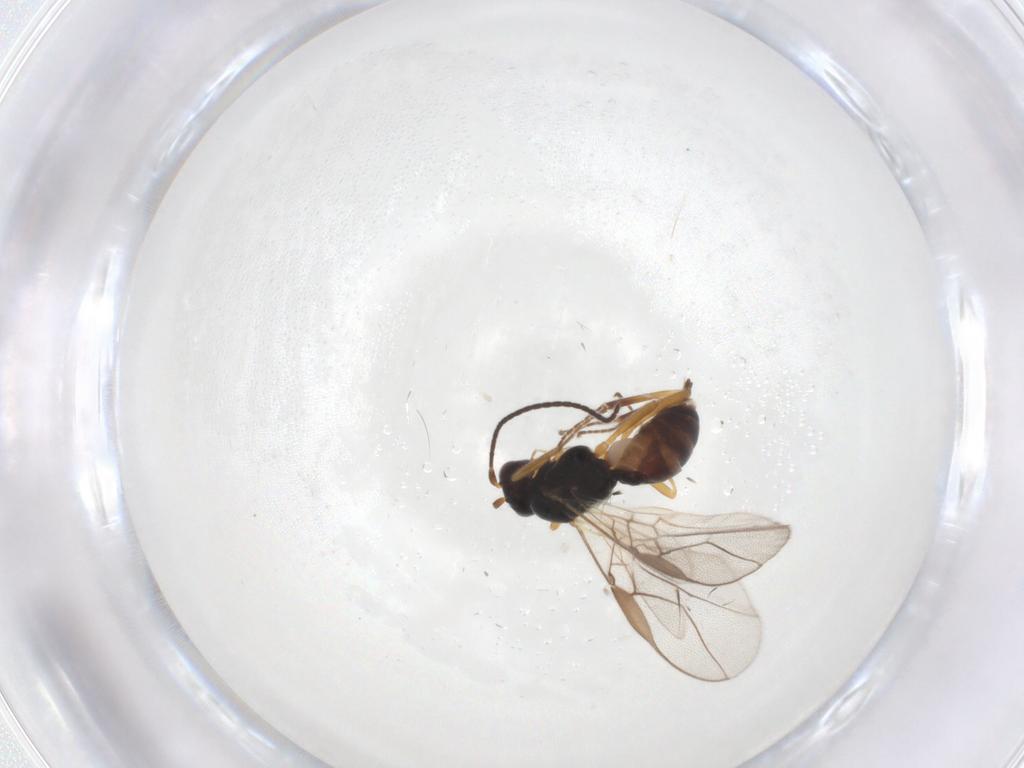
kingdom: Animalia
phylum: Arthropoda
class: Insecta
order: Hymenoptera
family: Braconidae
